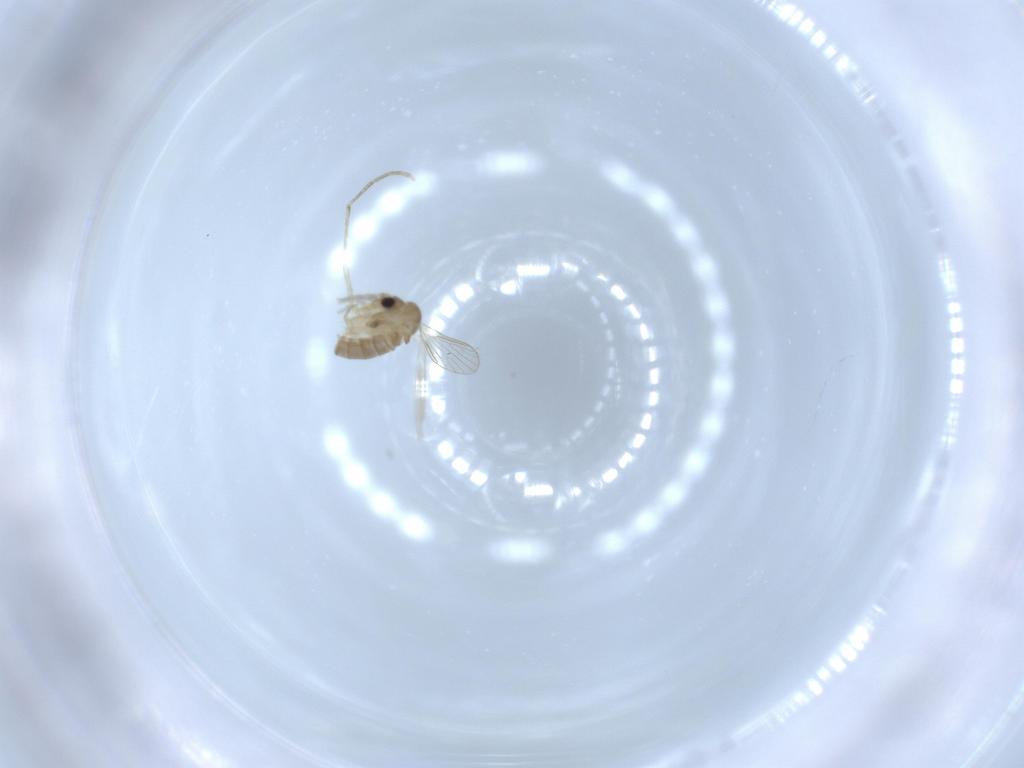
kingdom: Animalia
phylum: Arthropoda
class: Insecta
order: Diptera
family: Psychodidae
